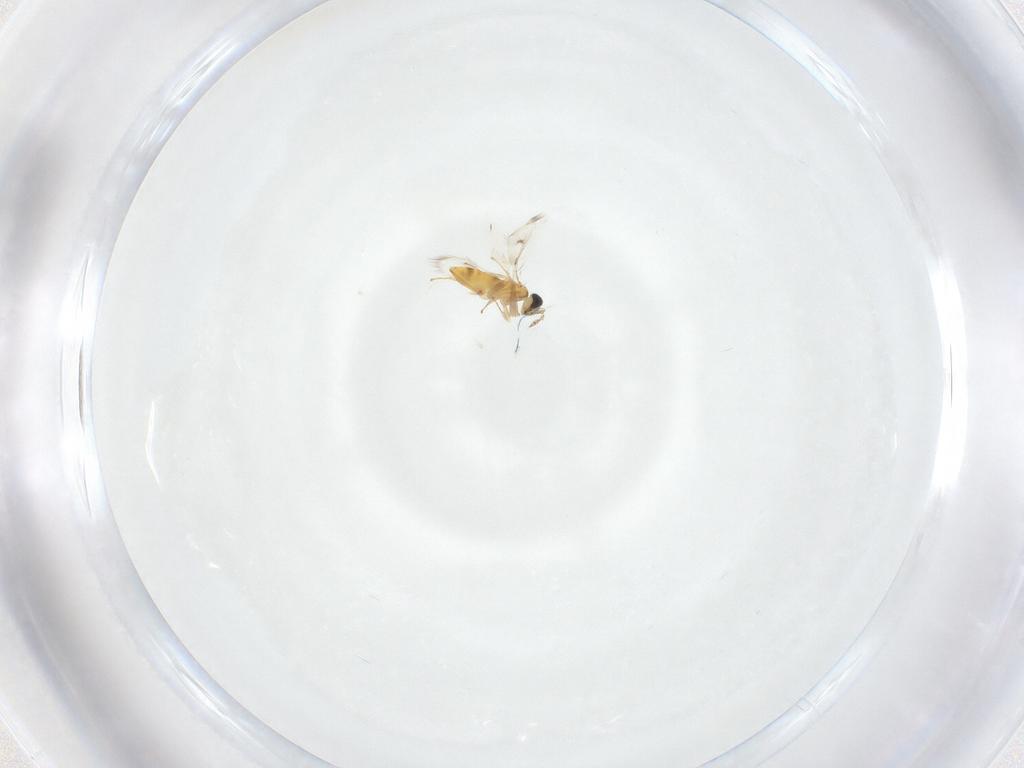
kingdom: Animalia
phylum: Arthropoda
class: Insecta
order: Hymenoptera
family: Trichogrammatidae
